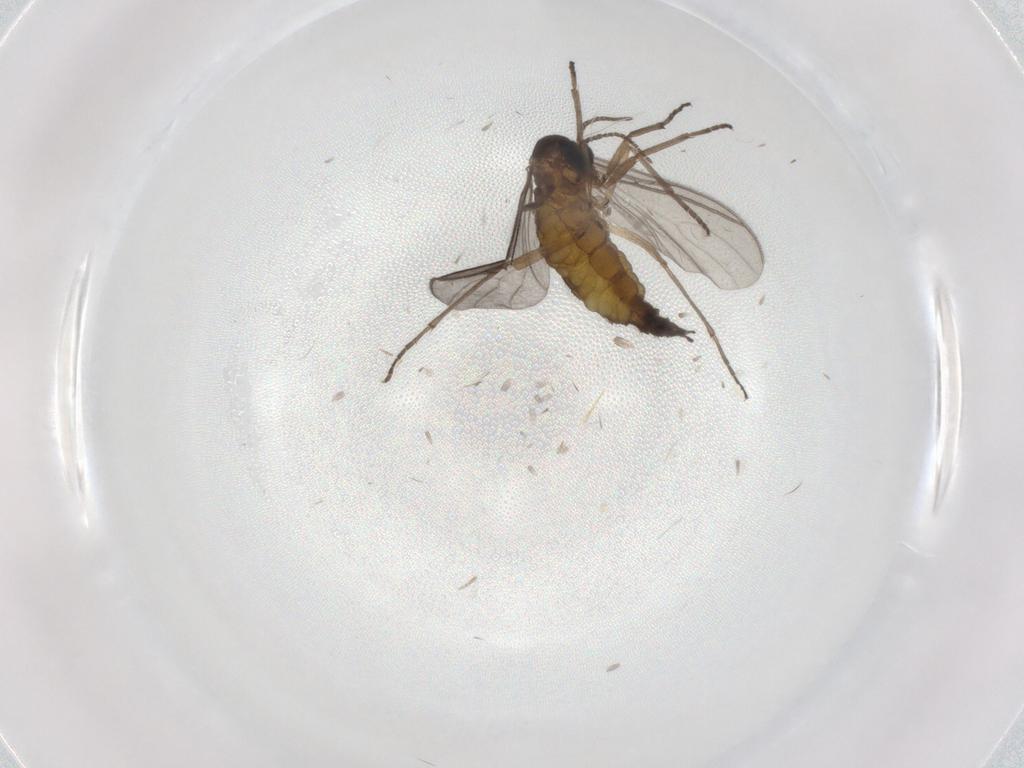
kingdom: Animalia
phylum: Arthropoda
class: Insecta
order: Diptera
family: Sciaridae
